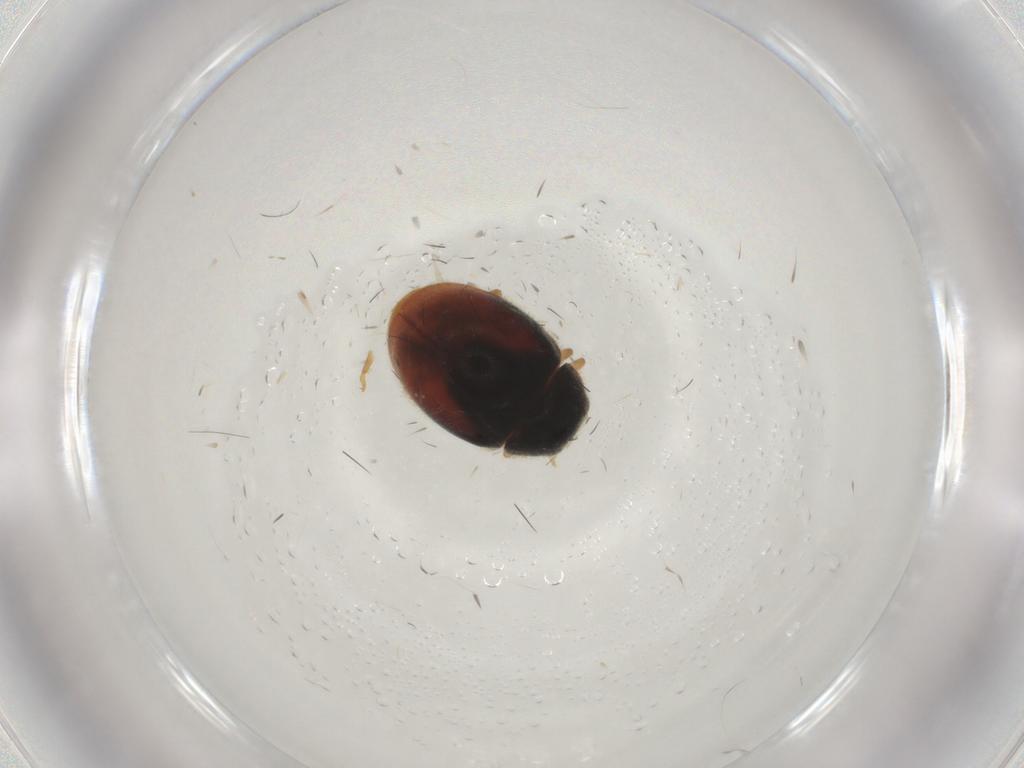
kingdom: Animalia
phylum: Arthropoda
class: Insecta
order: Coleoptera
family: Coccinellidae
